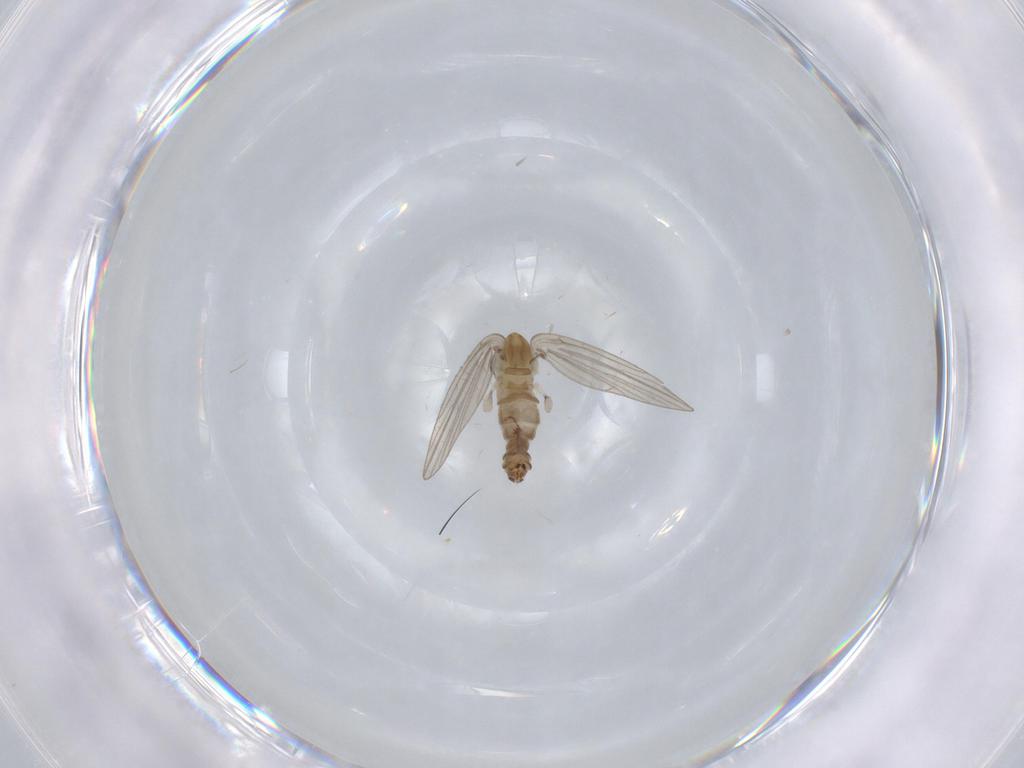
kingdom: Animalia
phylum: Arthropoda
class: Insecta
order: Diptera
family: Psychodidae
